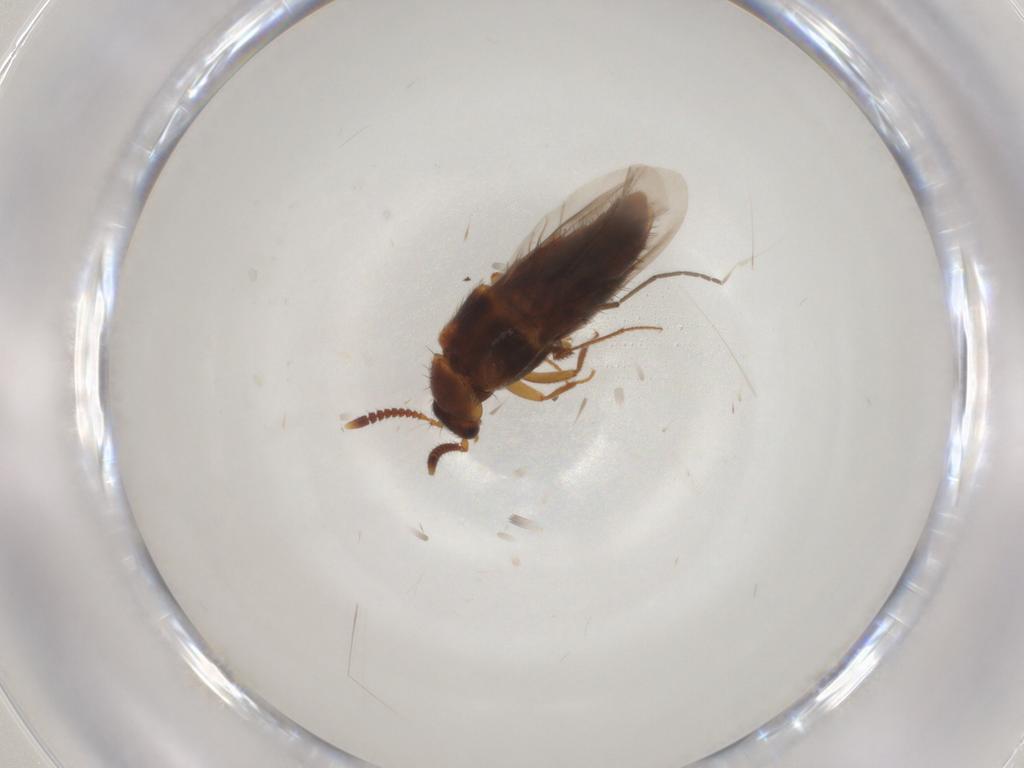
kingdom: Animalia
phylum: Arthropoda
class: Insecta
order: Diptera
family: Chironomidae
